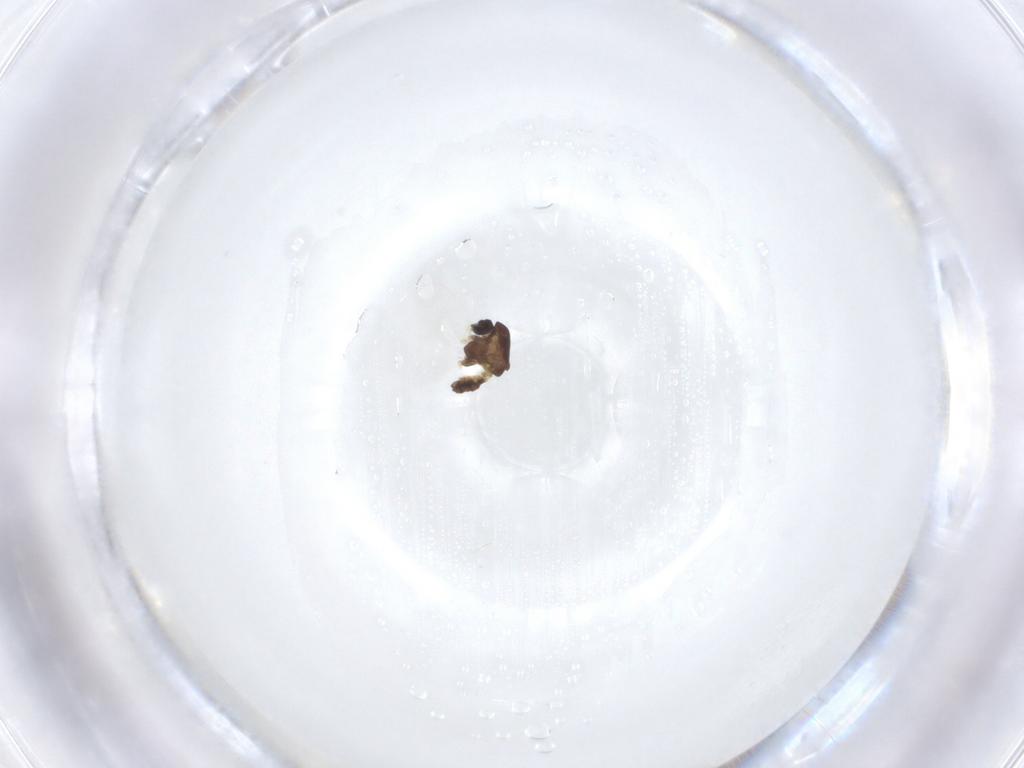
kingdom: Animalia
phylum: Arthropoda
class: Insecta
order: Diptera
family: Chironomidae
